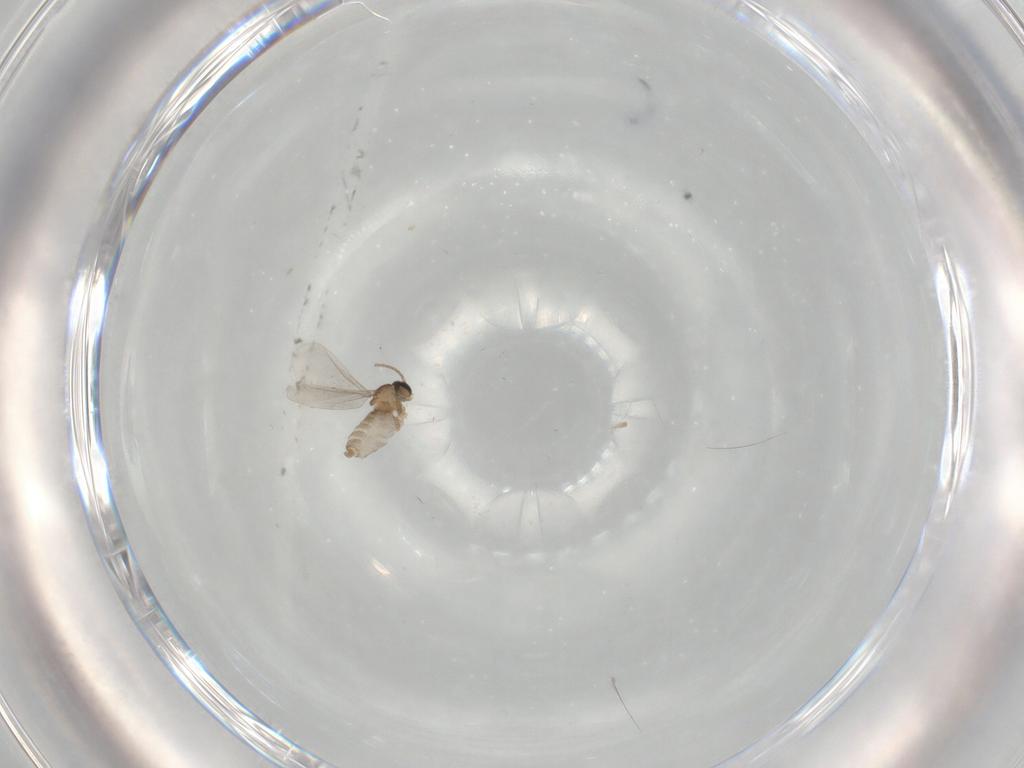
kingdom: Animalia
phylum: Arthropoda
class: Insecta
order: Diptera
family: Cecidomyiidae
